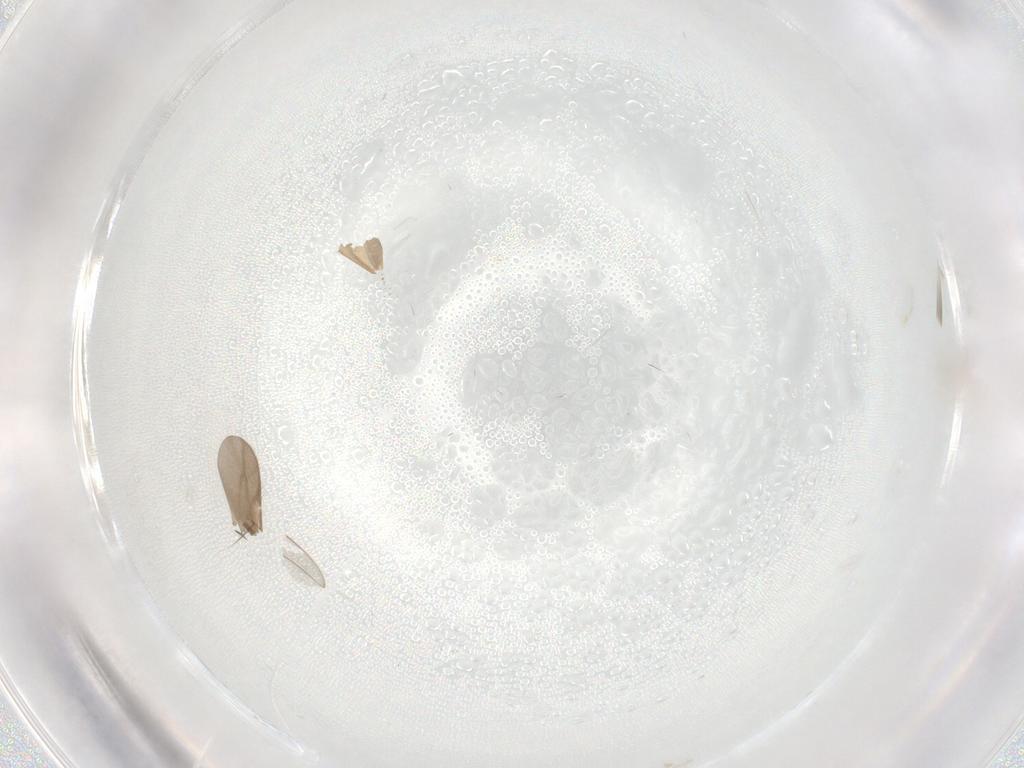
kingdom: Animalia
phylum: Arthropoda
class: Insecta
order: Diptera
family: Cecidomyiidae
